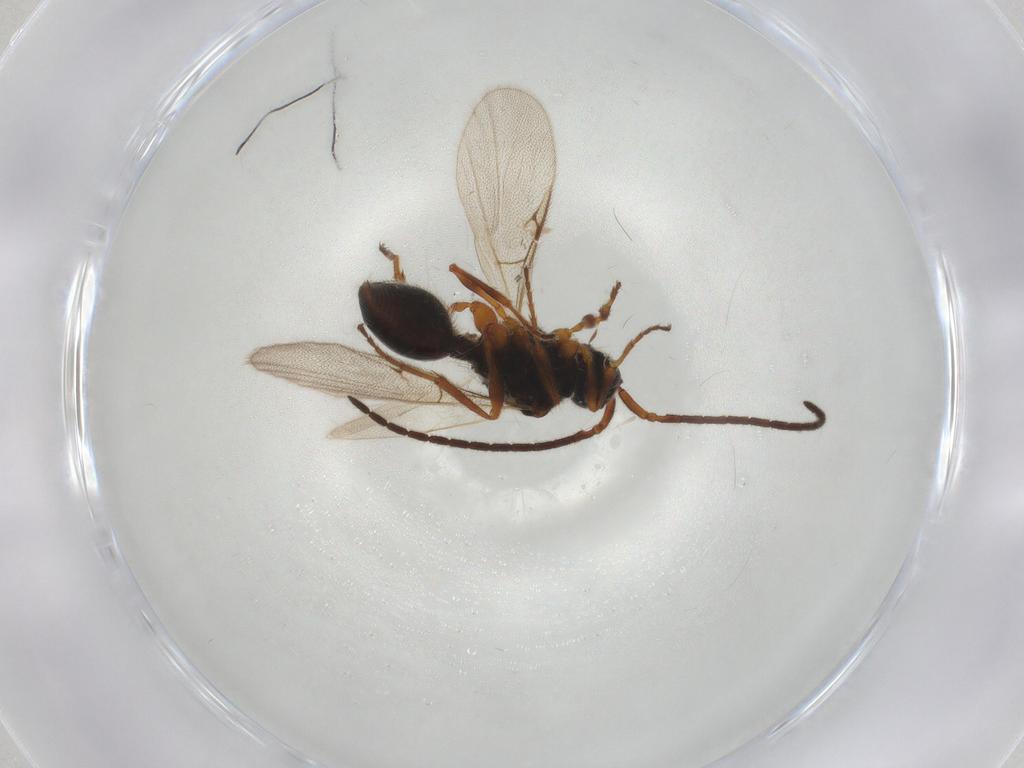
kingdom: Animalia
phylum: Arthropoda
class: Insecta
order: Hymenoptera
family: Diapriidae
